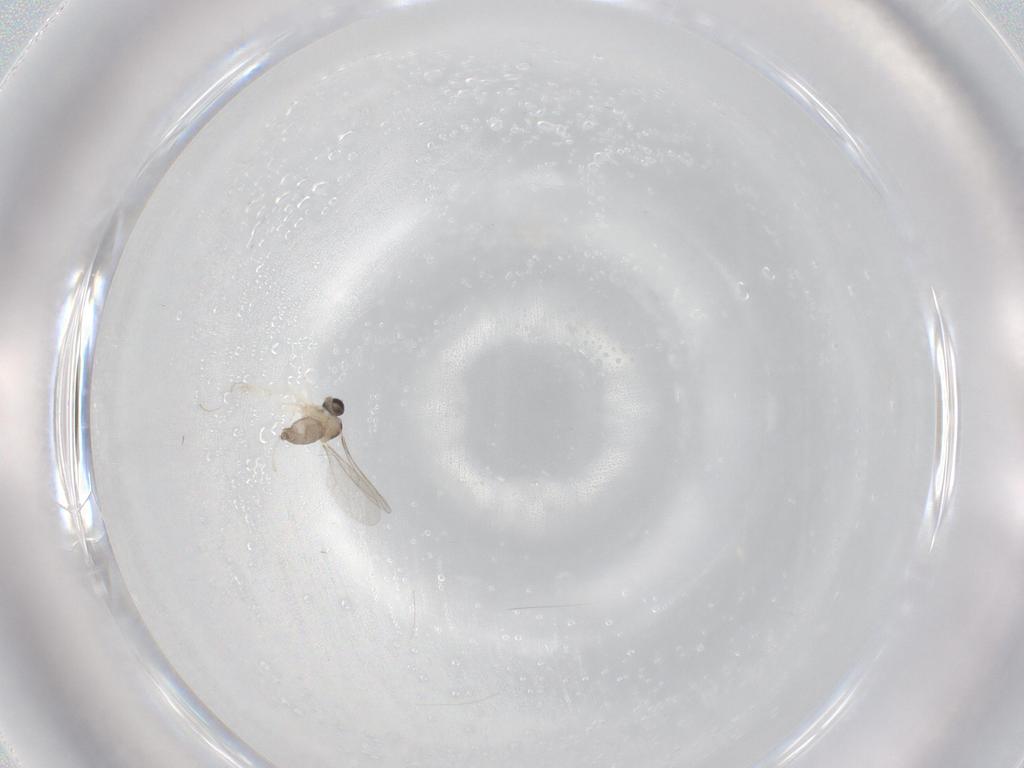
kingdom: Animalia
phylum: Arthropoda
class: Insecta
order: Diptera
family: Cecidomyiidae
